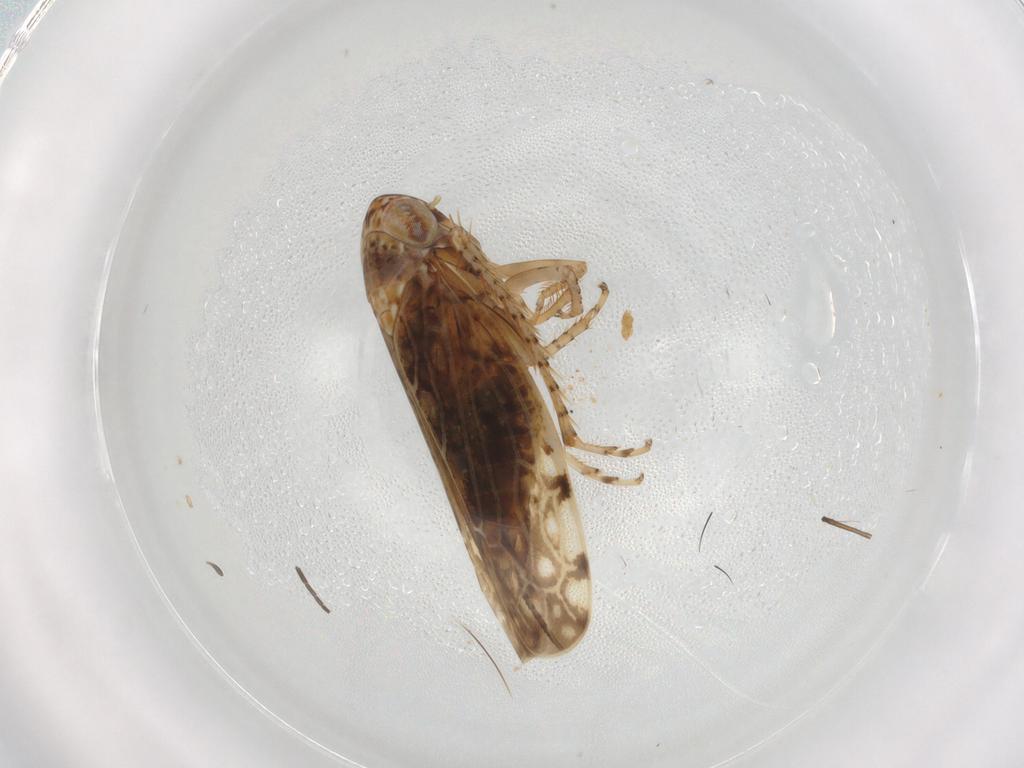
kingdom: Animalia
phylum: Arthropoda
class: Insecta
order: Hemiptera
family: Cicadellidae
